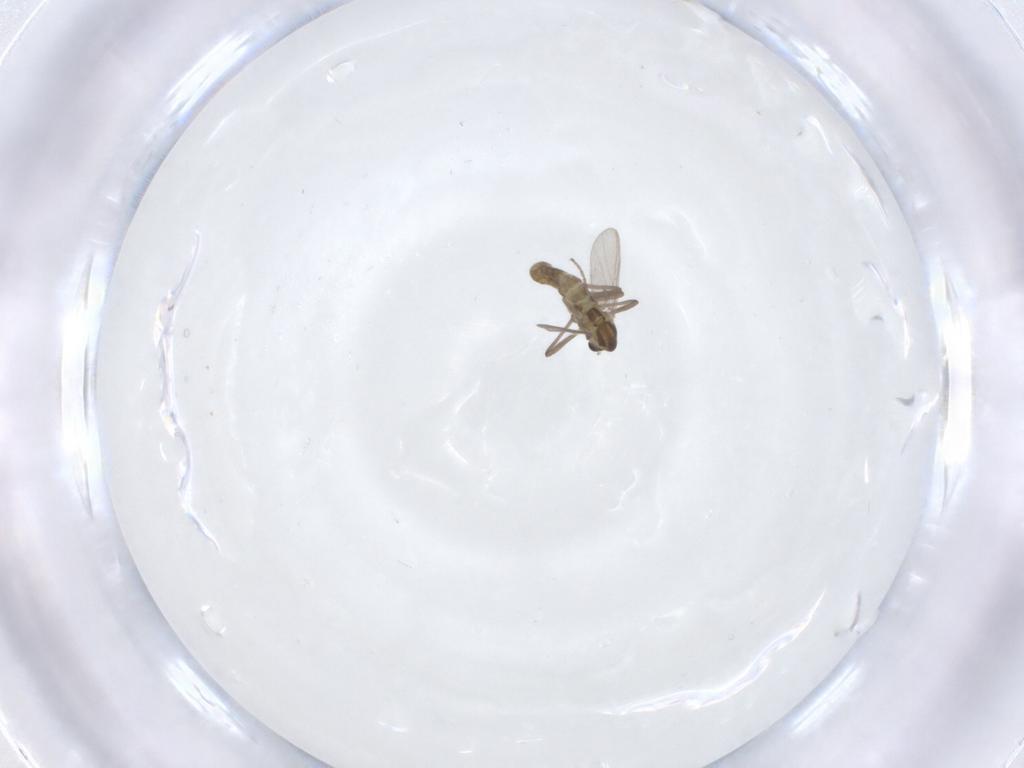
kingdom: Animalia
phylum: Arthropoda
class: Insecta
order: Diptera
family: Chironomidae
